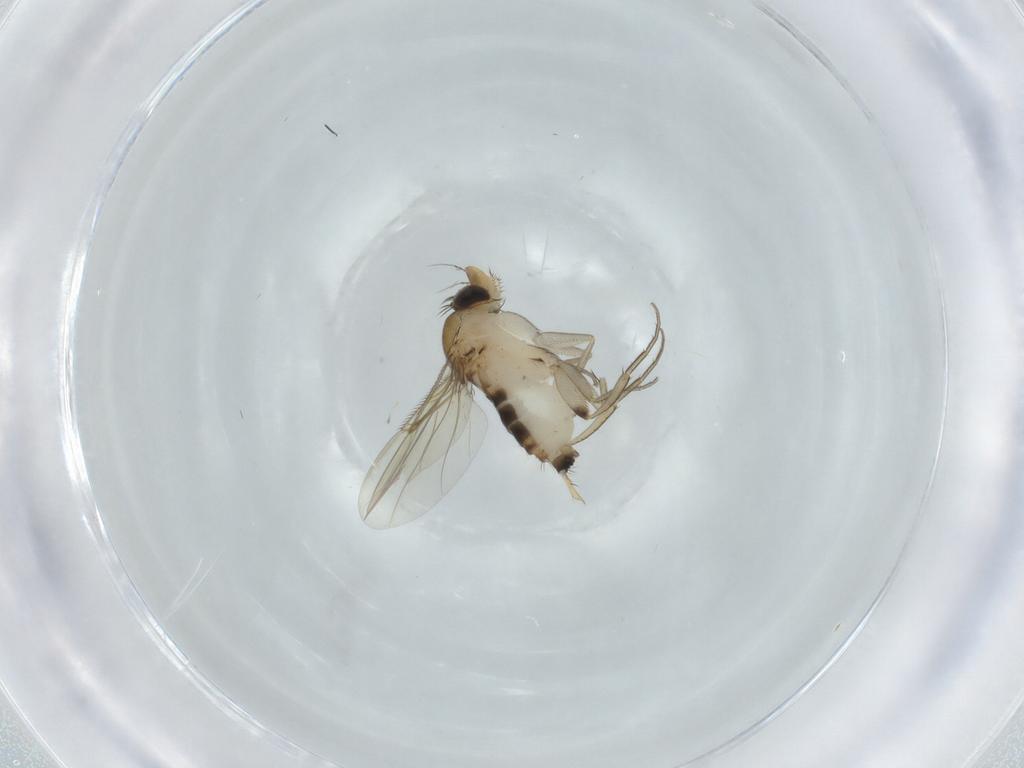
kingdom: Animalia
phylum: Arthropoda
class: Insecta
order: Diptera
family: Phoridae
